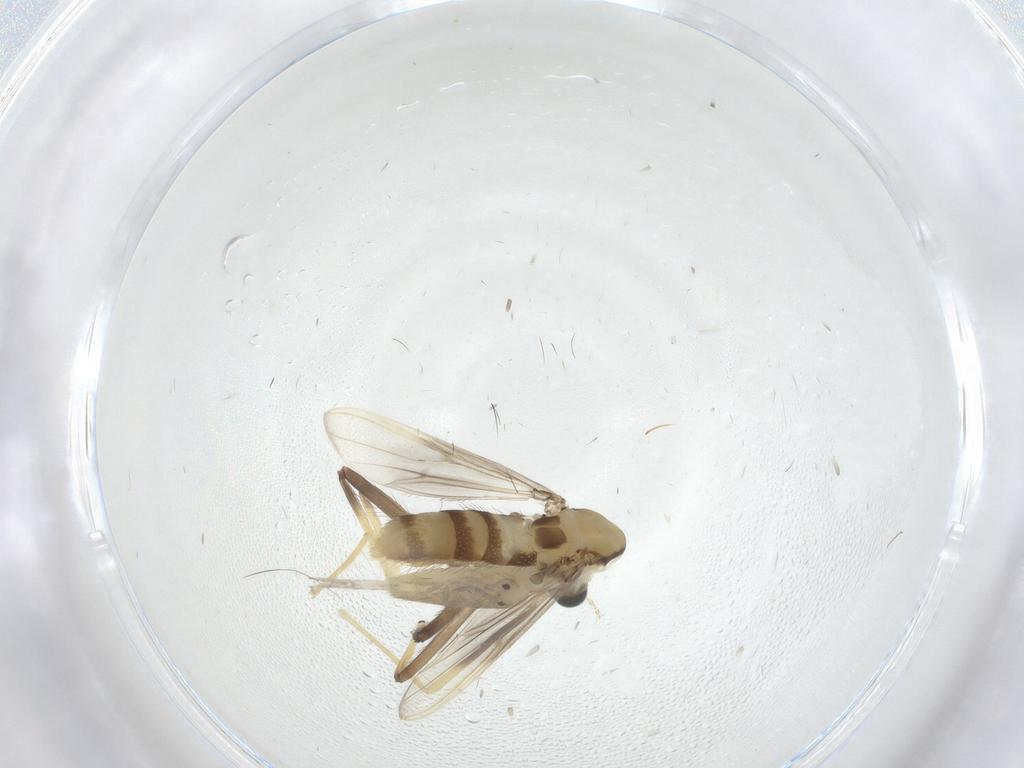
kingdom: Animalia
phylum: Arthropoda
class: Insecta
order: Diptera
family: Chironomidae
